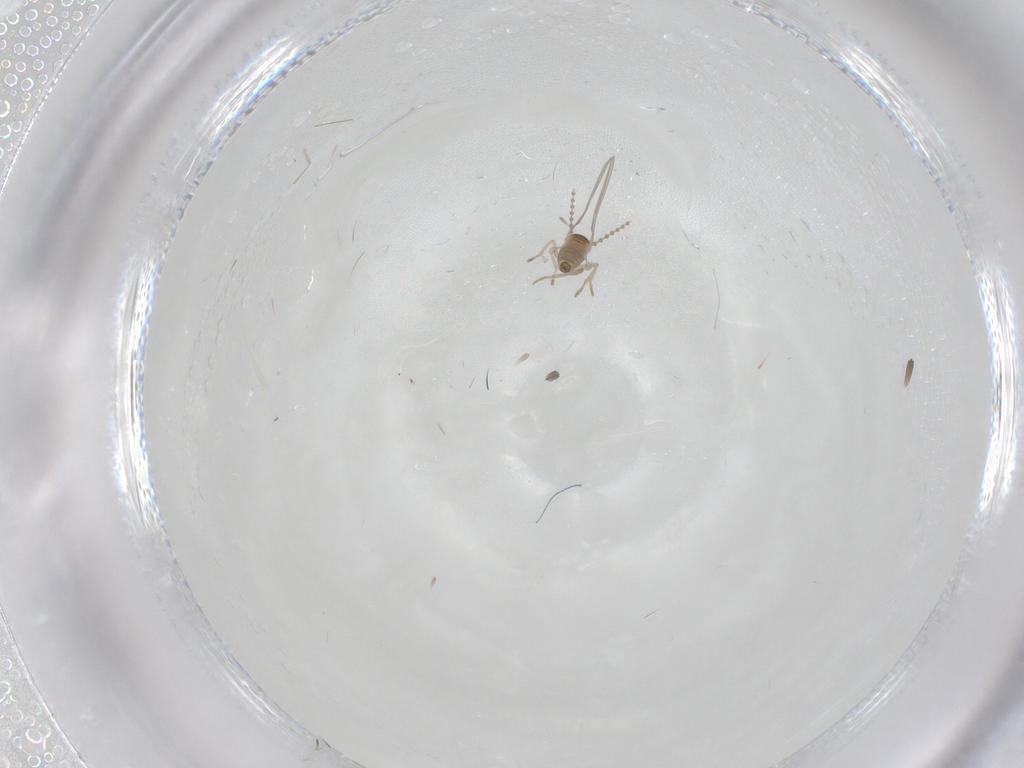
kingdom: Animalia
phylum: Arthropoda
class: Insecta
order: Diptera
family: Cecidomyiidae
